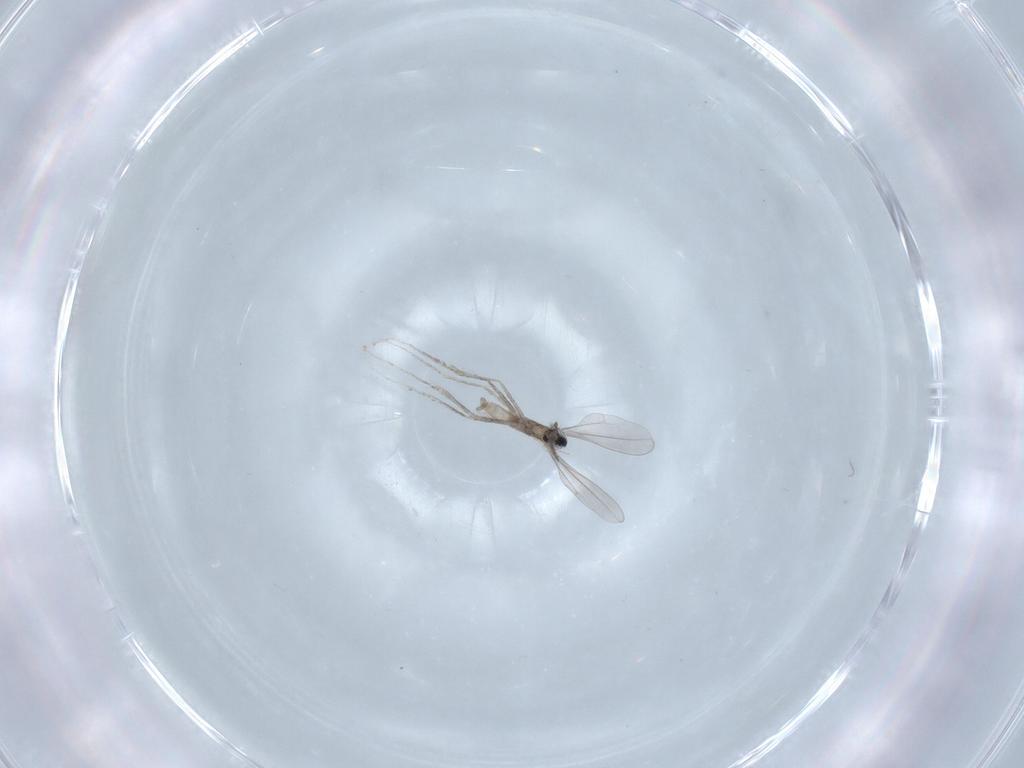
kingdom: Animalia
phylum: Arthropoda
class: Insecta
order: Diptera
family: Cecidomyiidae
